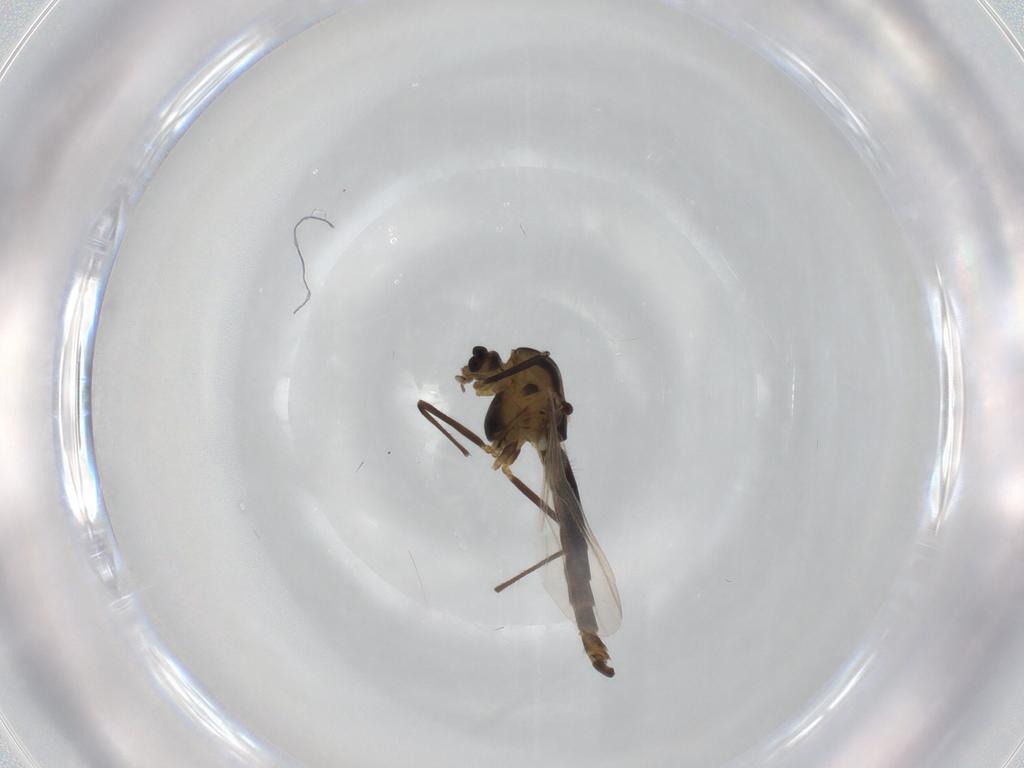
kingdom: Animalia
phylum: Arthropoda
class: Insecta
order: Diptera
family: Chironomidae
